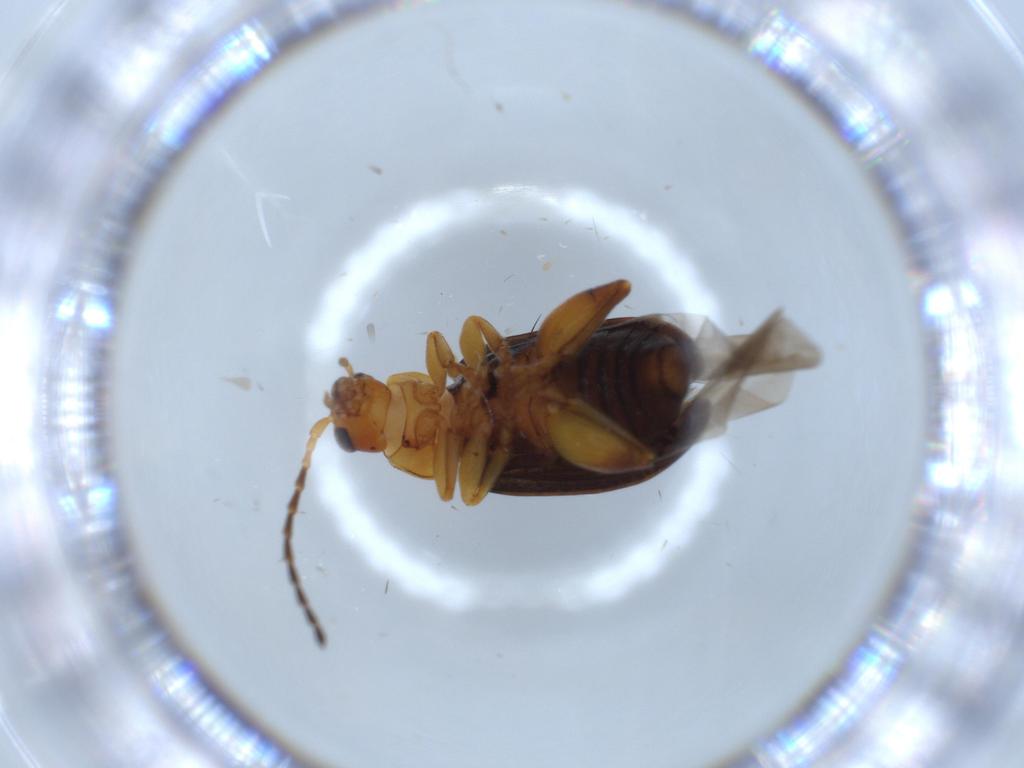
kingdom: Animalia
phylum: Arthropoda
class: Insecta
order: Coleoptera
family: Chrysomelidae
